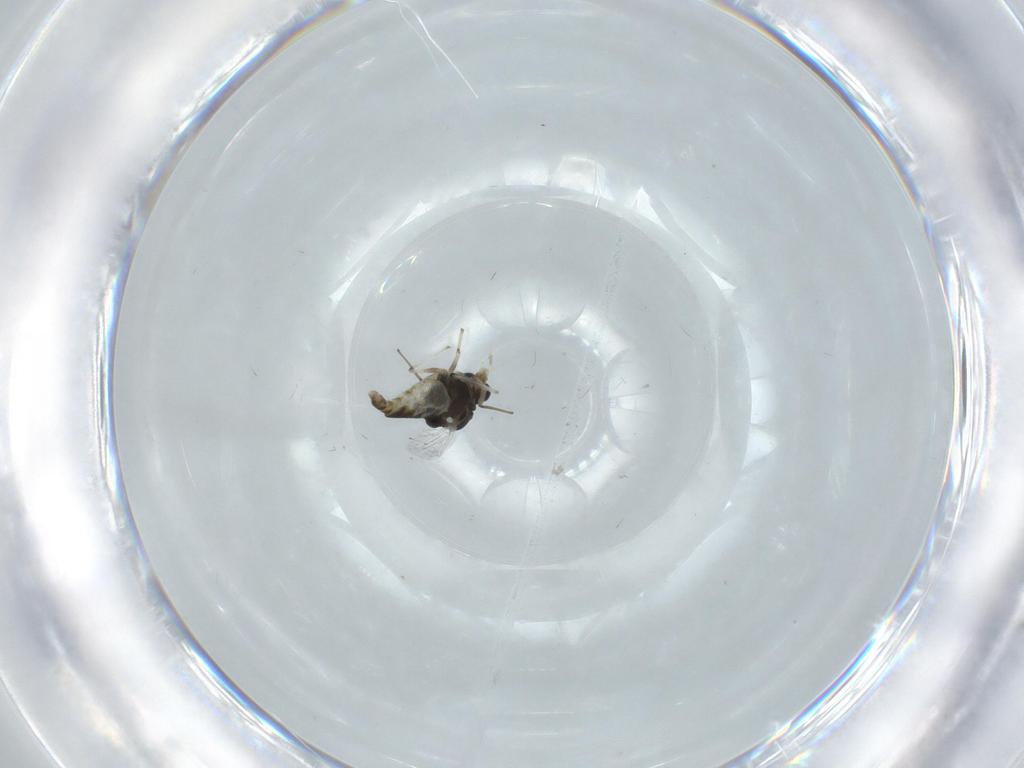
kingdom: Animalia
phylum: Arthropoda
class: Insecta
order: Diptera
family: Chironomidae
